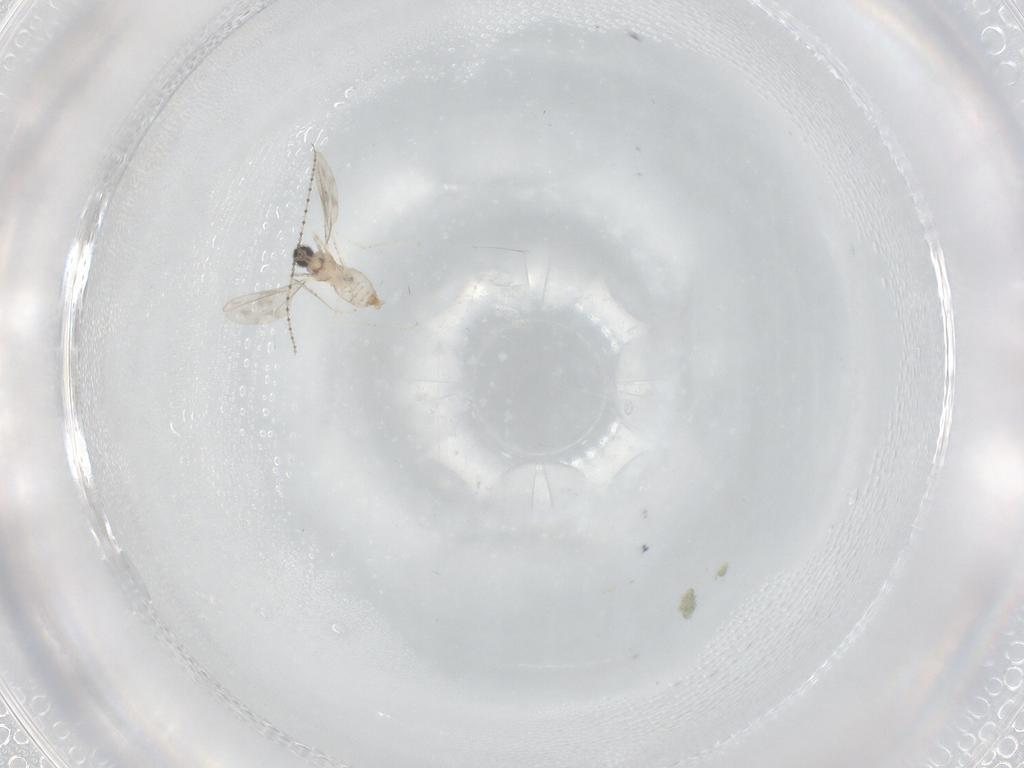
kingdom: Animalia
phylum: Arthropoda
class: Insecta
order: Diptera
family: Cecidomyiidae
